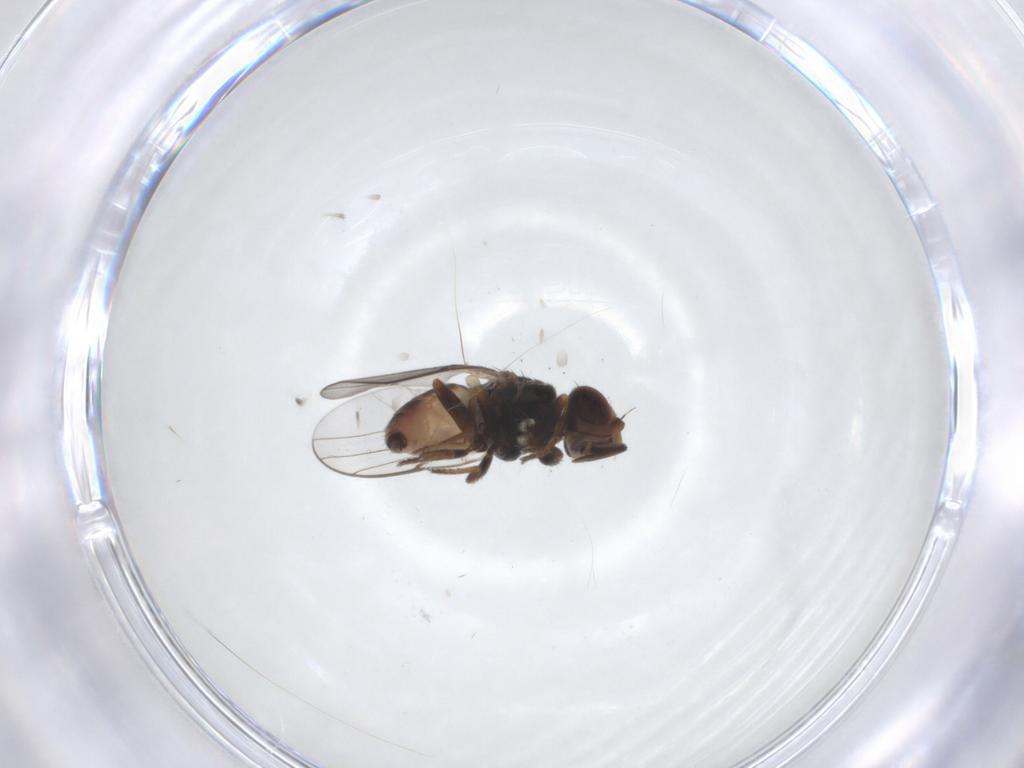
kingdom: Animalia
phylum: Arthropoda
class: Insecta
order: Diptera
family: Chloropidae
